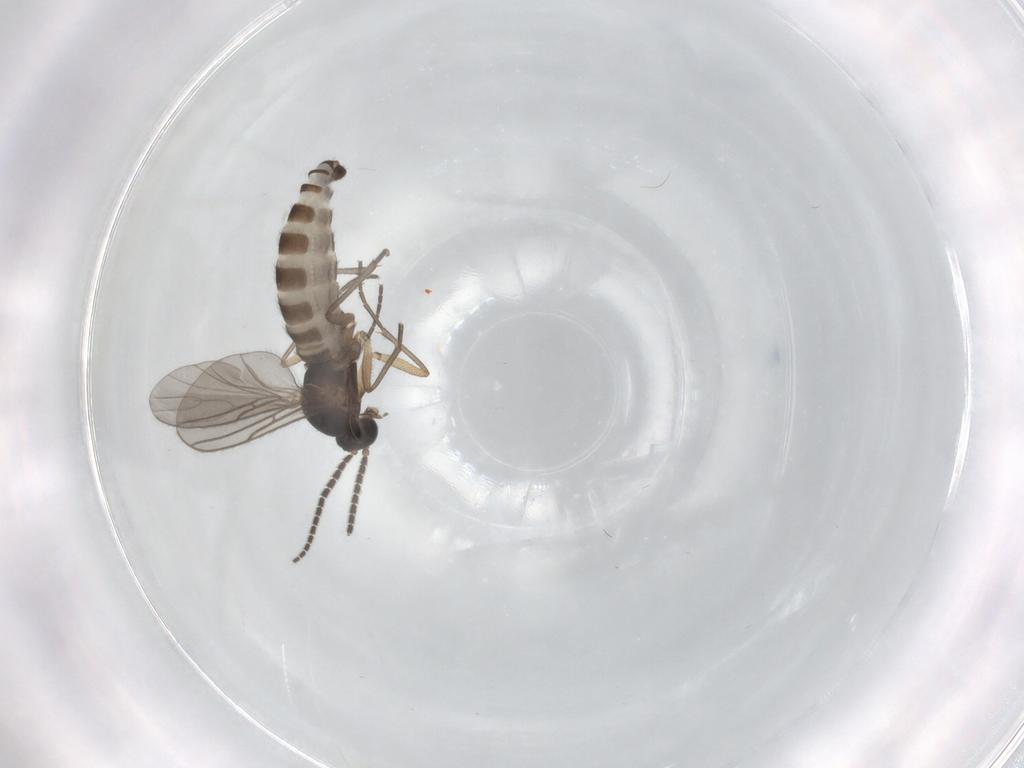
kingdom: Animalia
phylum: Arthropoda
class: Insecta
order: Diptera
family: Sciaridae
